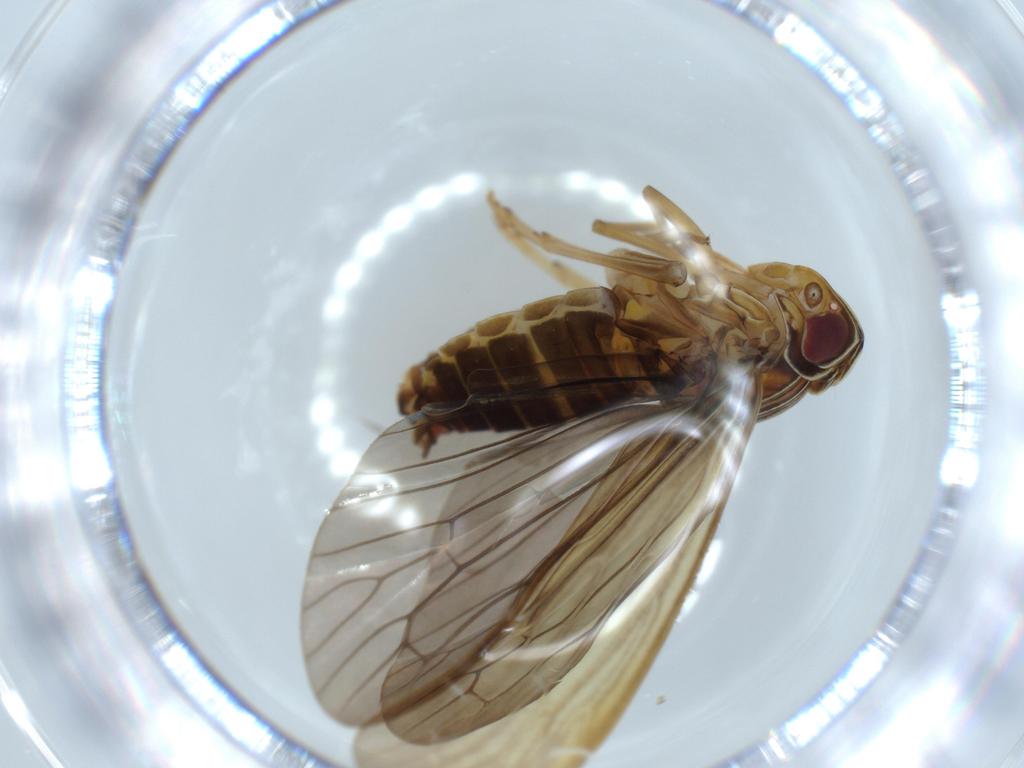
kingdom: Animalia
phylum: Arthropoda
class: Insecta
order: Hemiptera
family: Achilidae
